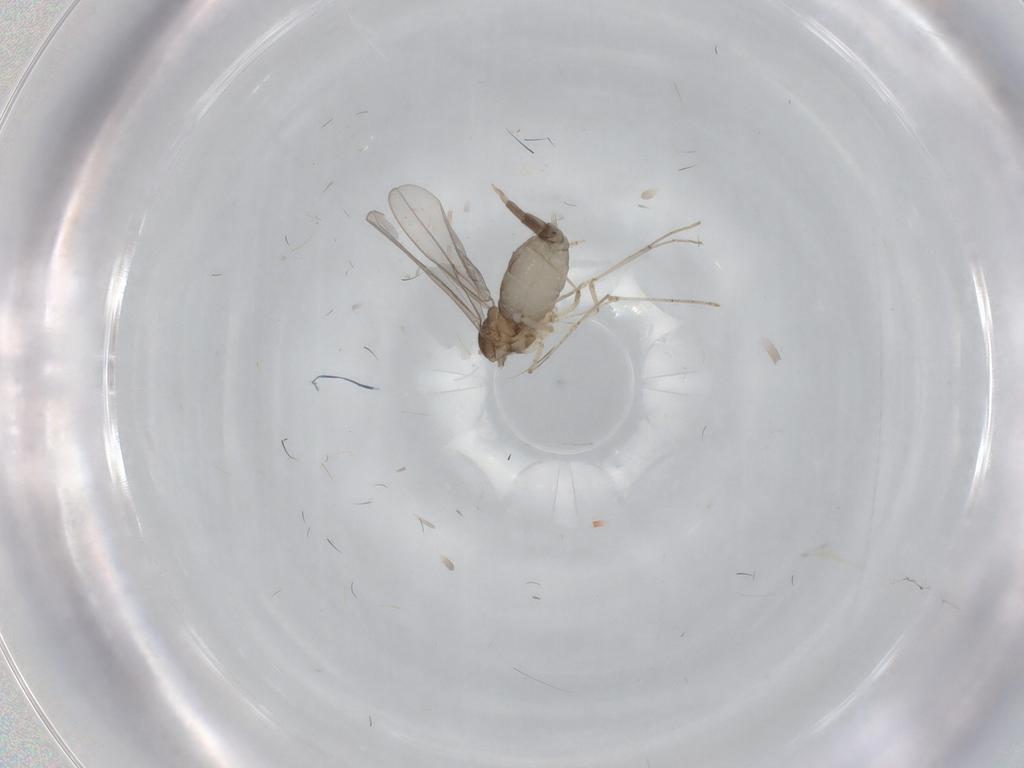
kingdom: Animalia
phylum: Arthropoda
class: Insecta
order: Diptera
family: Cecidomyiidae
